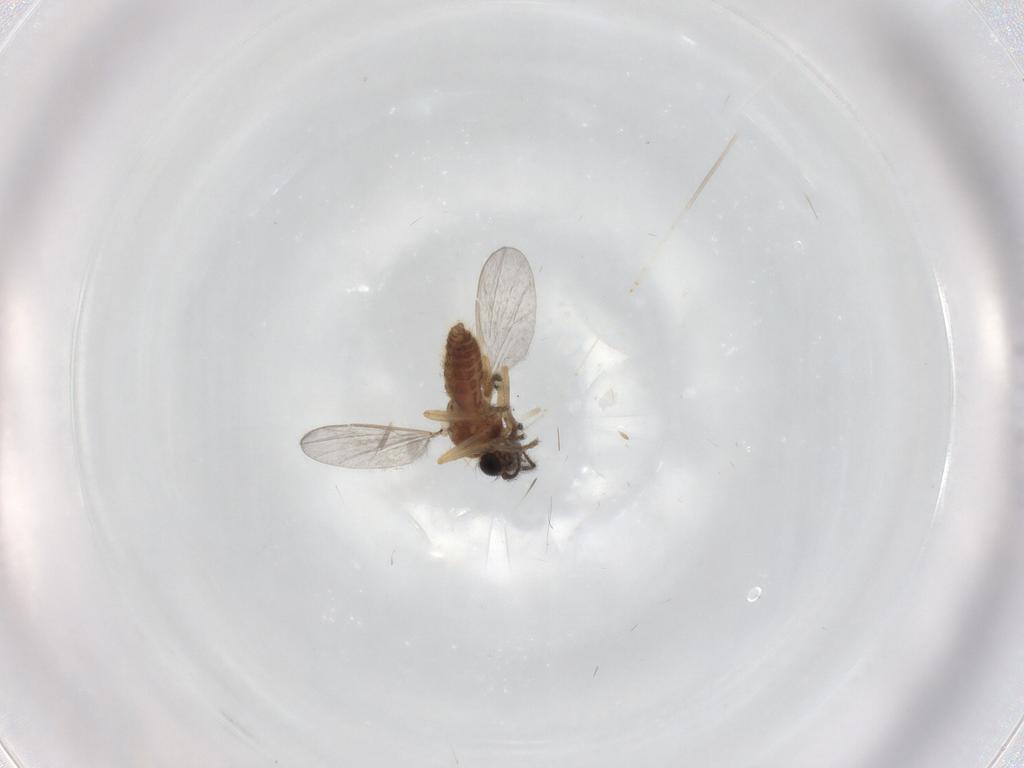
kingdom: Animalia
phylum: Arthropoda
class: Insecta
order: Diptera
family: Ceratopogonidae
